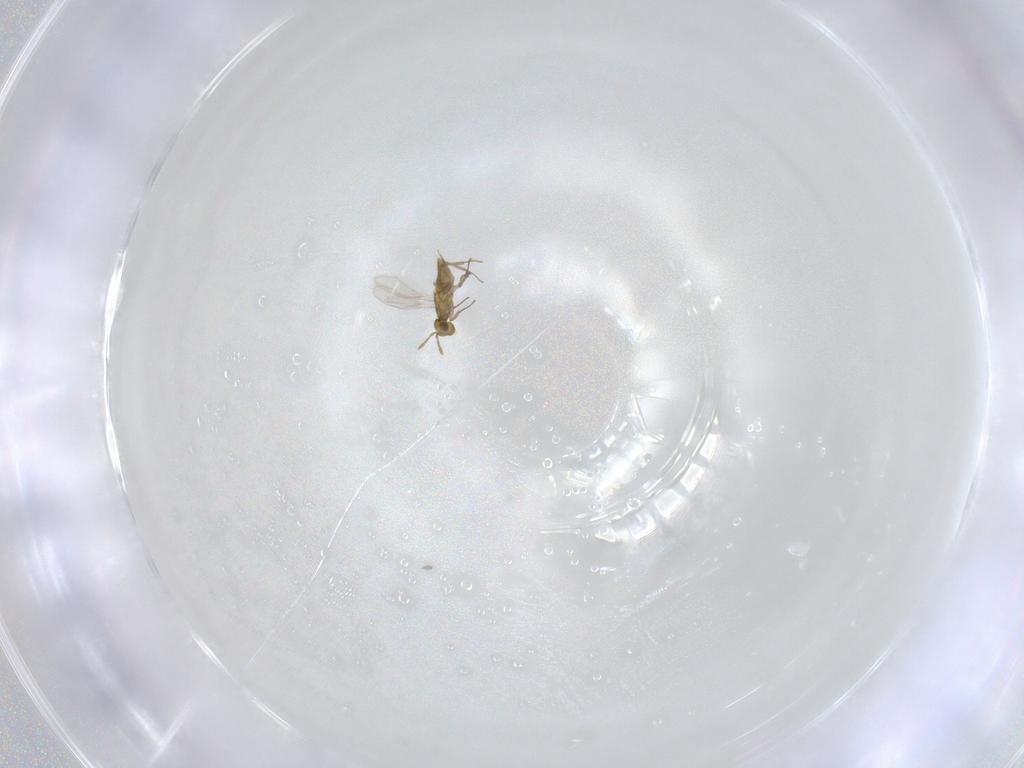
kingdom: Animalia
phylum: Arthropoda
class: Insecta
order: Hymenoptera
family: Aphelinidae
